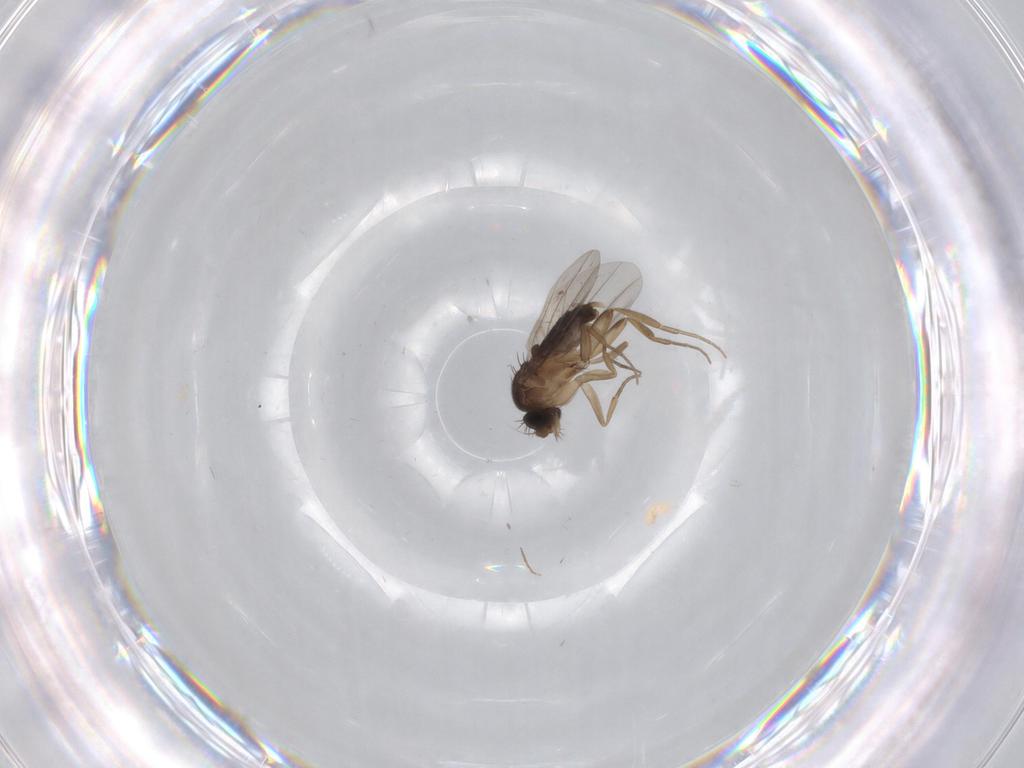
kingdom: Animalia
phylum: Arthropoda
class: Insecta
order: Diptera
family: Phoridae
